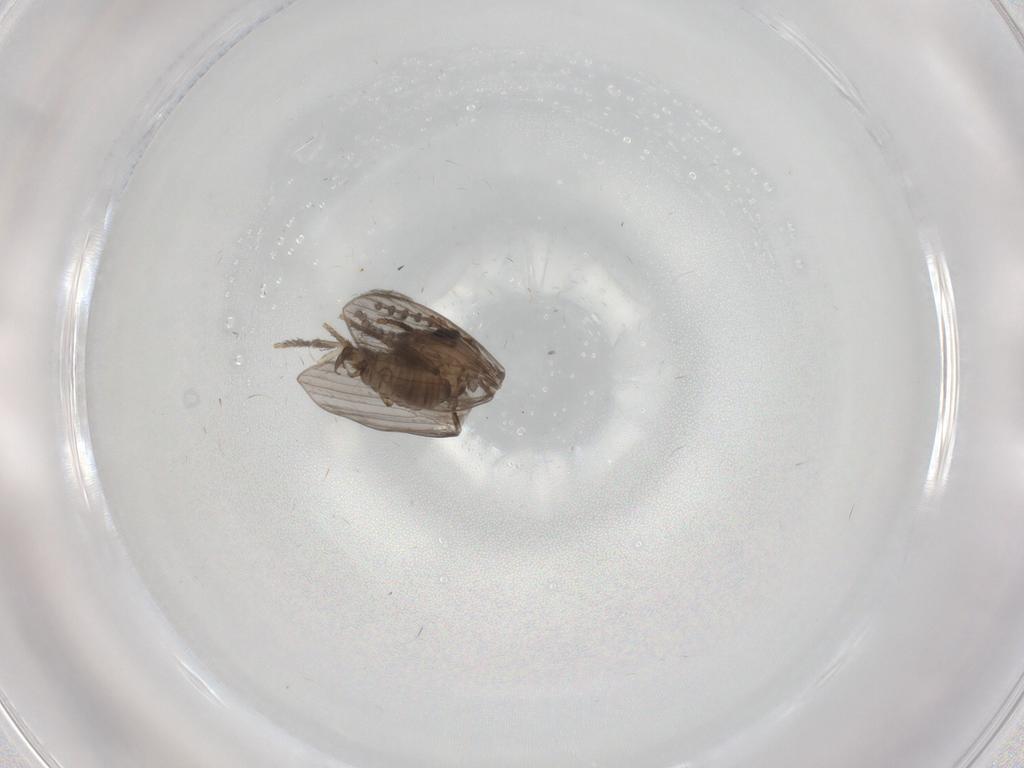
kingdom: Animalia
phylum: Arthropoda
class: Insecta
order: Diptera
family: Psychodidae
